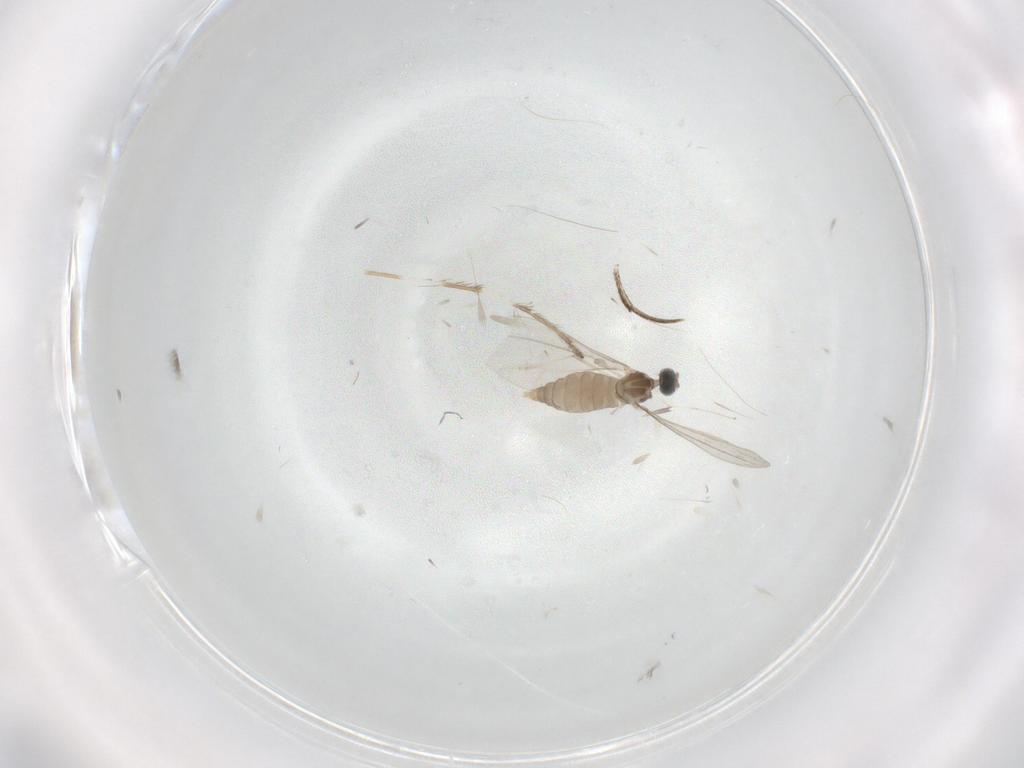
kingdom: Animalia
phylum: Arthropoda
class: Insecta
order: Diptera
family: Cecidomyiidae
